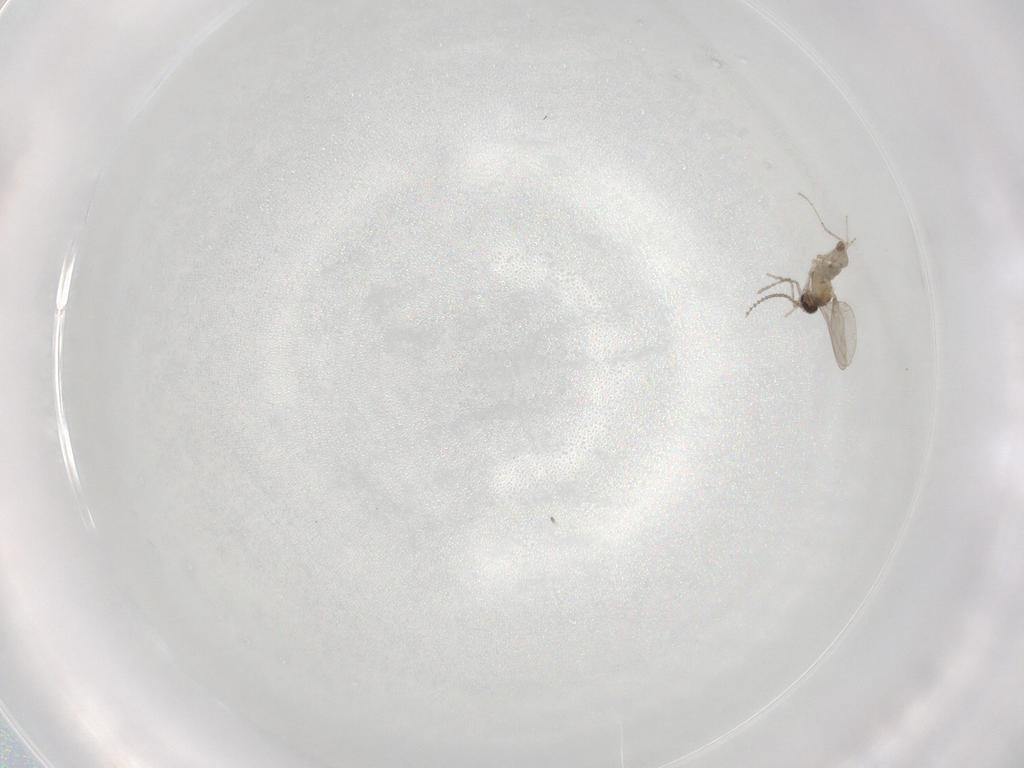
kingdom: Animalia
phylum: Arthropoda
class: Insecta
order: Diptera
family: Cecidomyiidae
